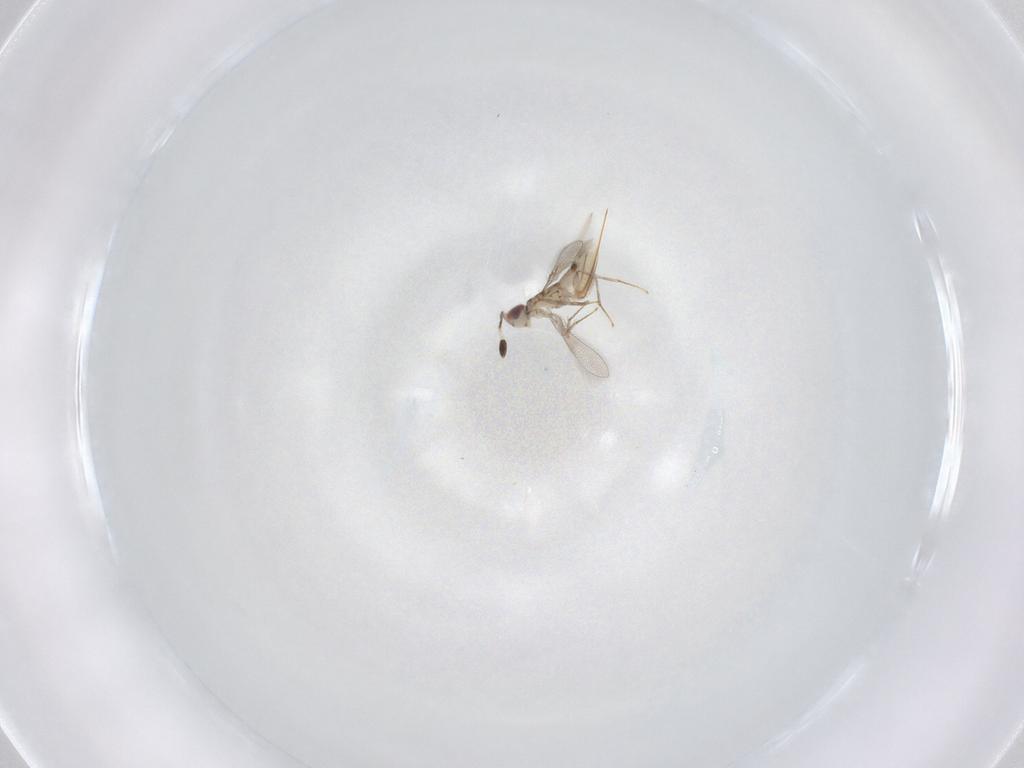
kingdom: Animalia
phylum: Arthropoda
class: Insecta
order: Hymenoptera
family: Mymaridae
